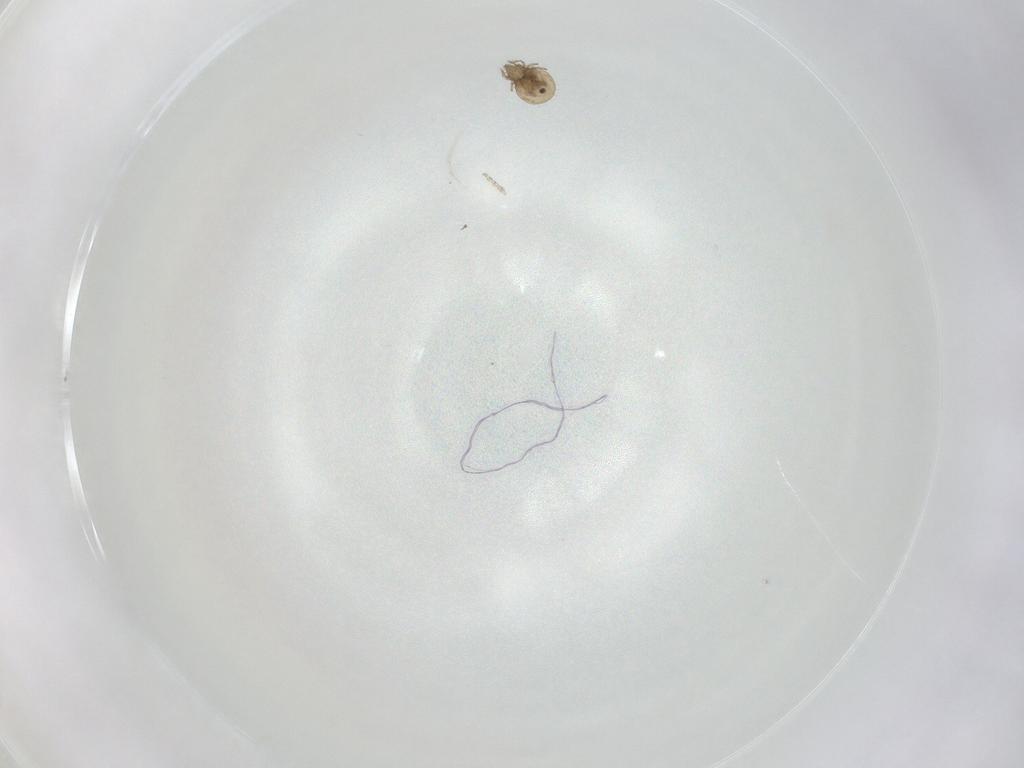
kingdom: Animalia
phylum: Arthropoda
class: Arachnida
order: Sarcoptiformes
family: Oribatulidae
